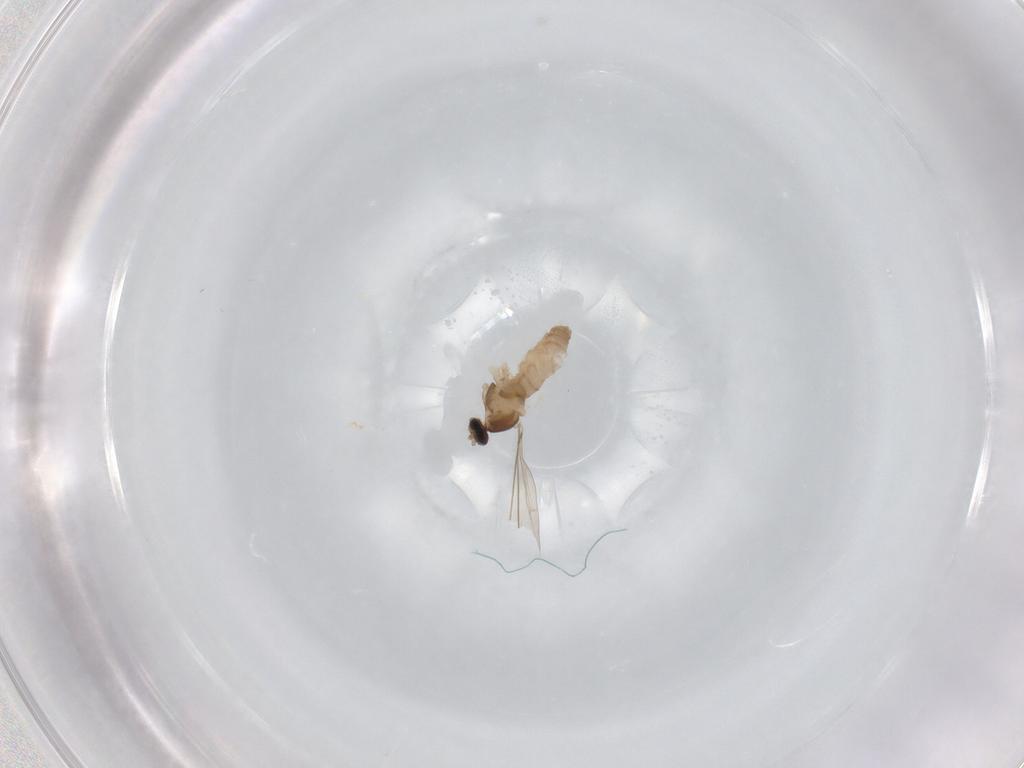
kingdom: Animalia
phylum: Arthropoda
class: Insecta
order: Diptera
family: Cecidomyiidae
